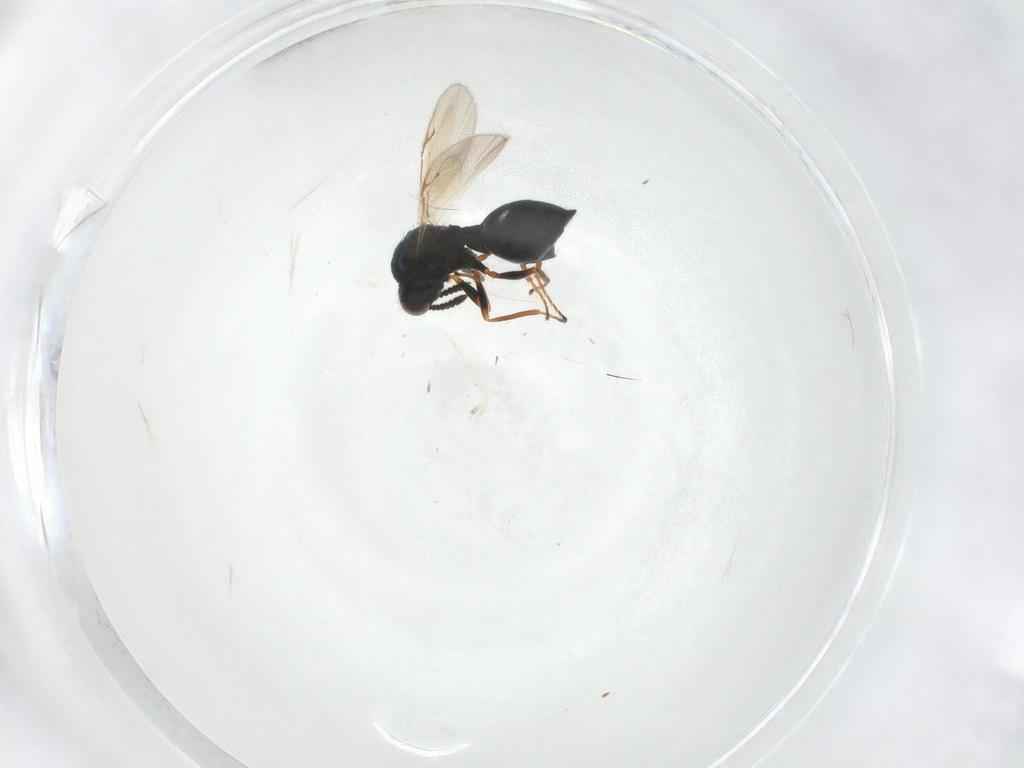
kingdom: Animalia
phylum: Arthropoda
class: Insecta
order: Hymenoptera
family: Chalcidoidea_incertae_sedis
